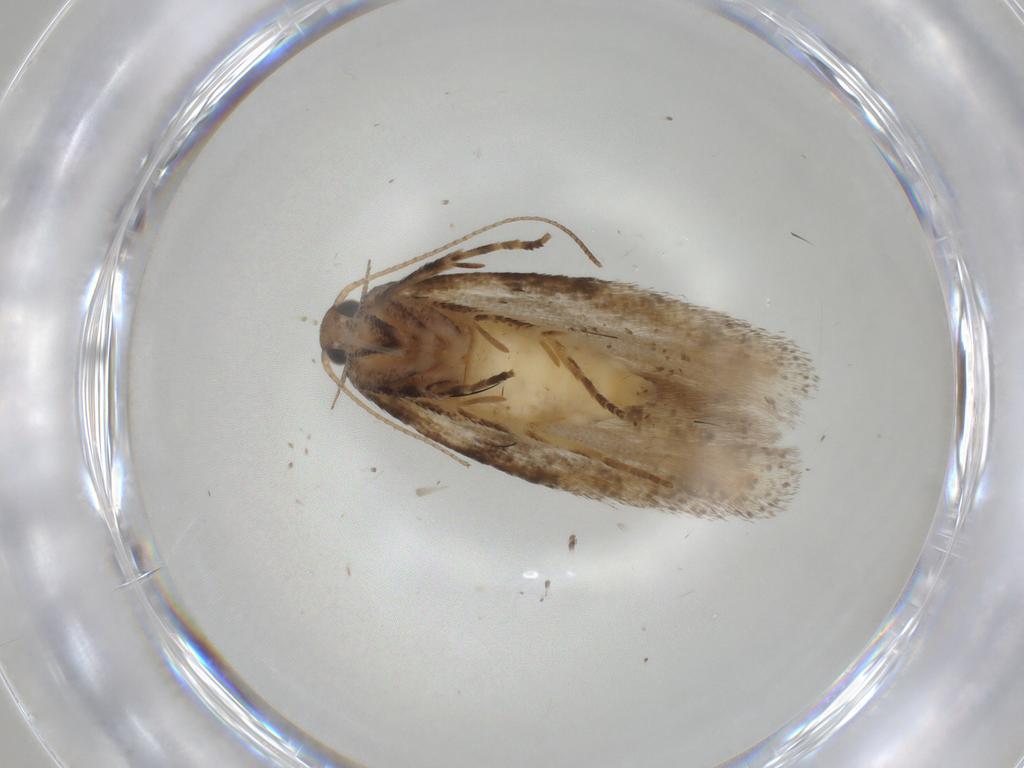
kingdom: Animalia
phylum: Arthropoda
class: Insecta
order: Lepidoptera
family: Gelechiidae
